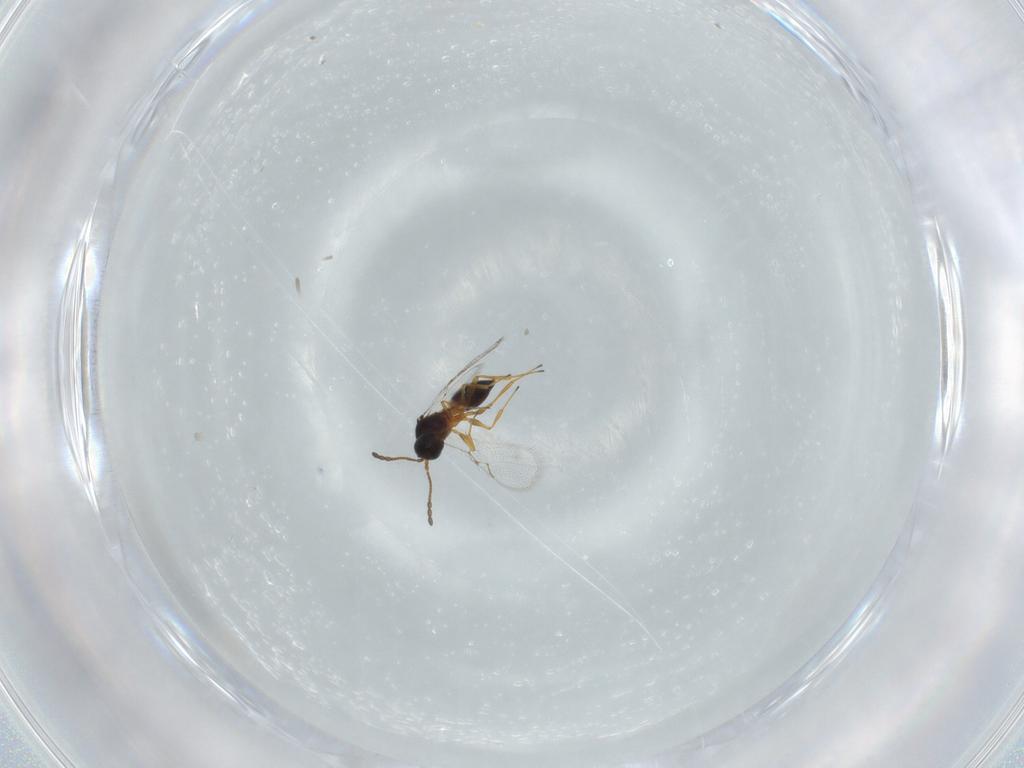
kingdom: Animalia
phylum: Arthropoda
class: Insecta
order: Hymenoptera
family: Figitidae
